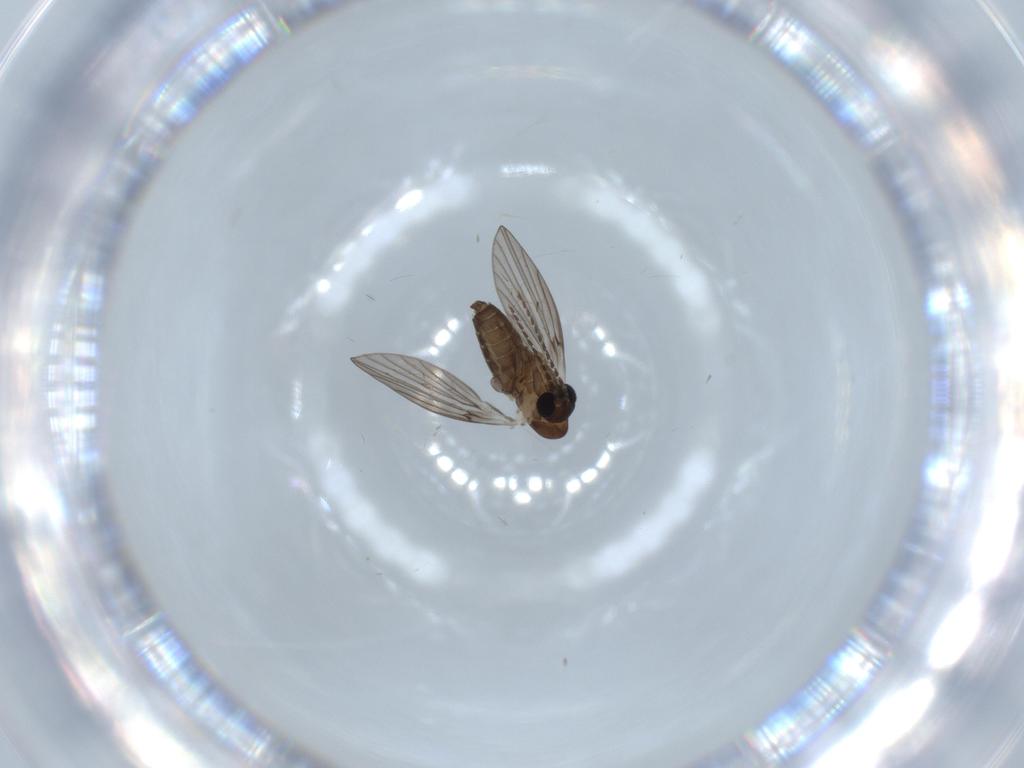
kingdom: Animalia
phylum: Arthropoda
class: Insecta
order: Diptera
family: Psychodidae
